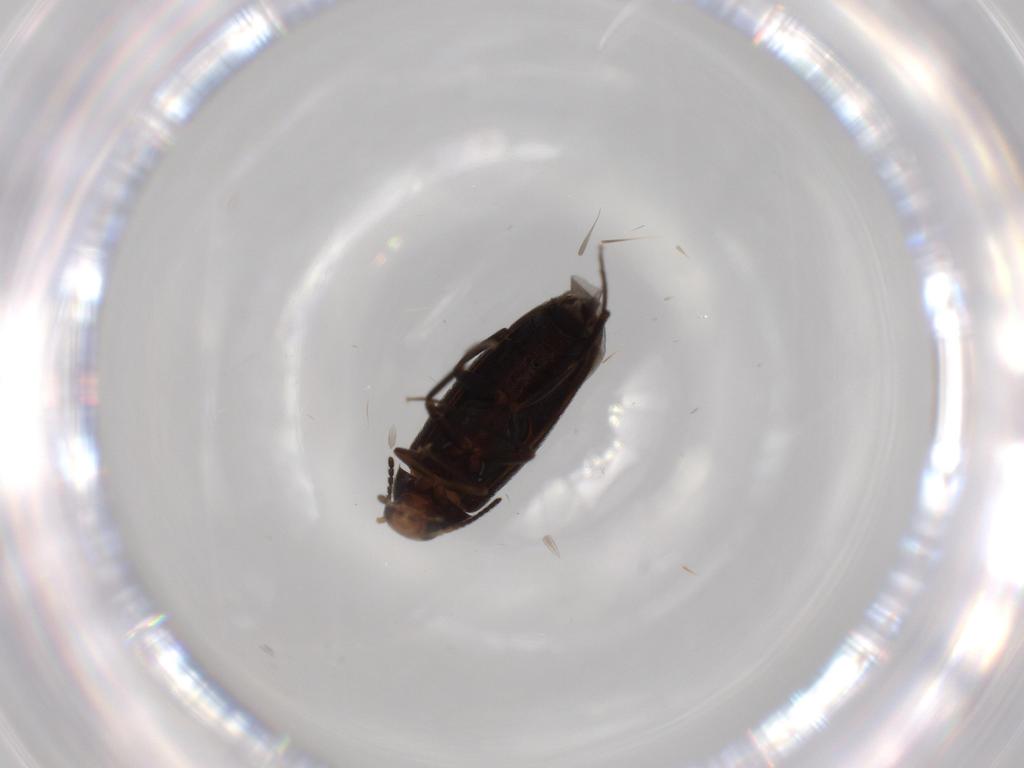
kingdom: Animalia
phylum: Arthropoda
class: Insecta
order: Coleoptera
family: Melandryidae
